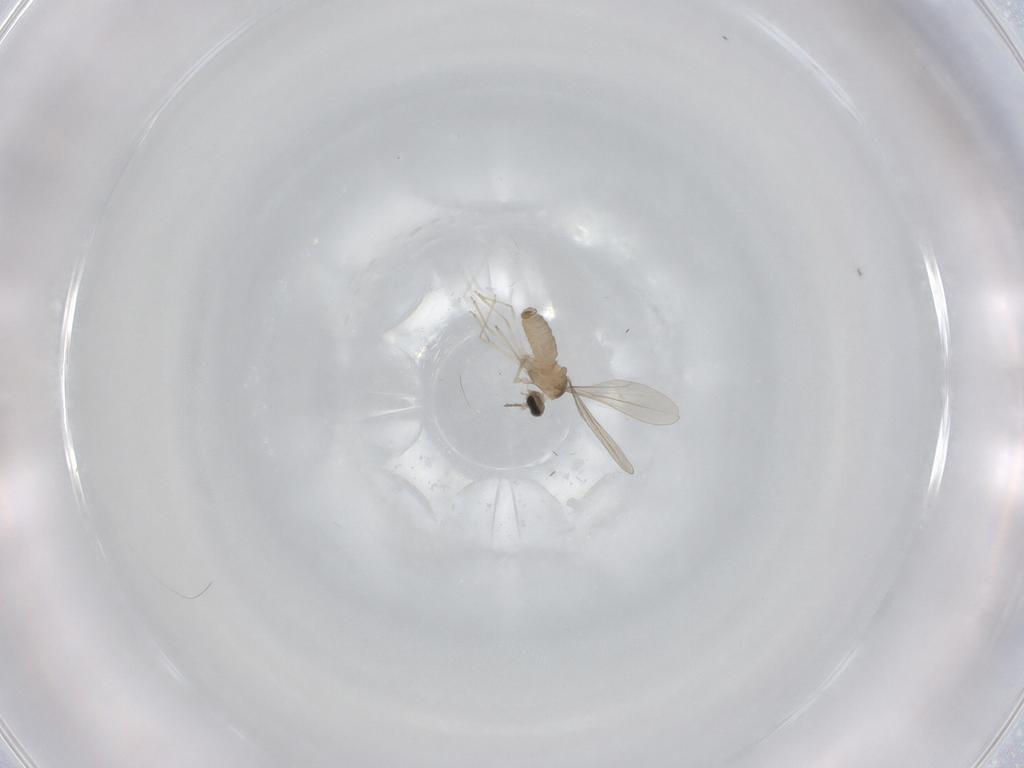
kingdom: Animalia
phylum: Arthropoda
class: Insecta
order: Diptera
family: Cecidomyiidae
